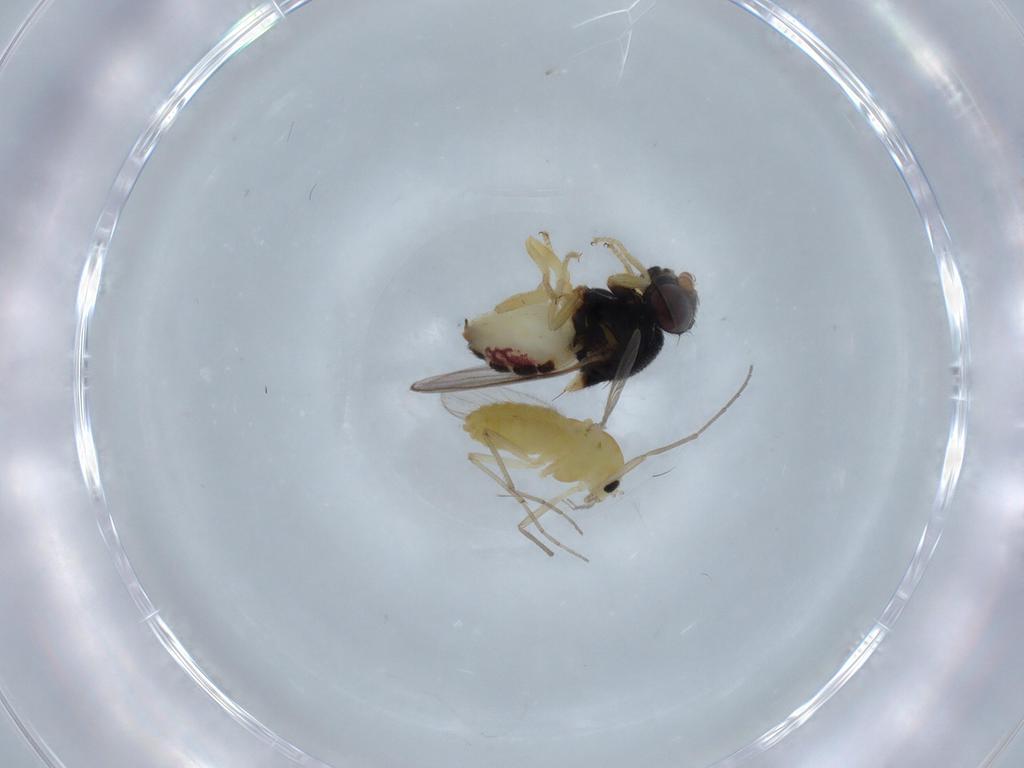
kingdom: Animalia
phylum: Arthropoda
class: Insecta
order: Diptera
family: Chironomidae
